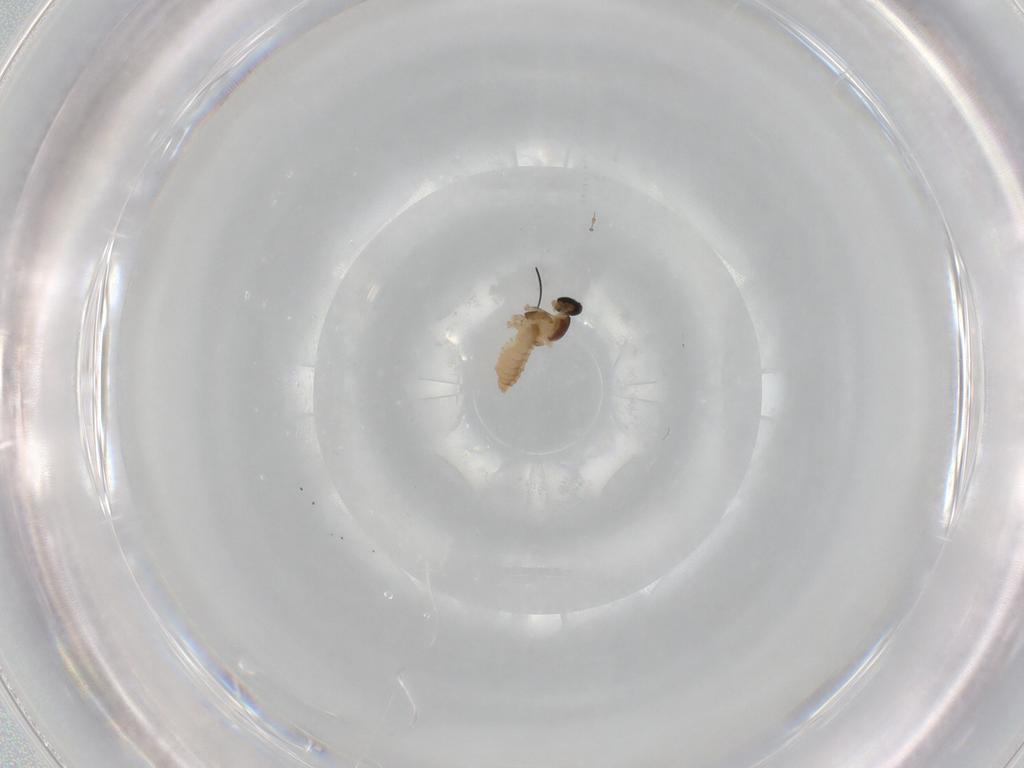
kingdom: Animalia
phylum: Arthropoda
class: Insecta
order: Diptera
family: Cecidomyiidae
